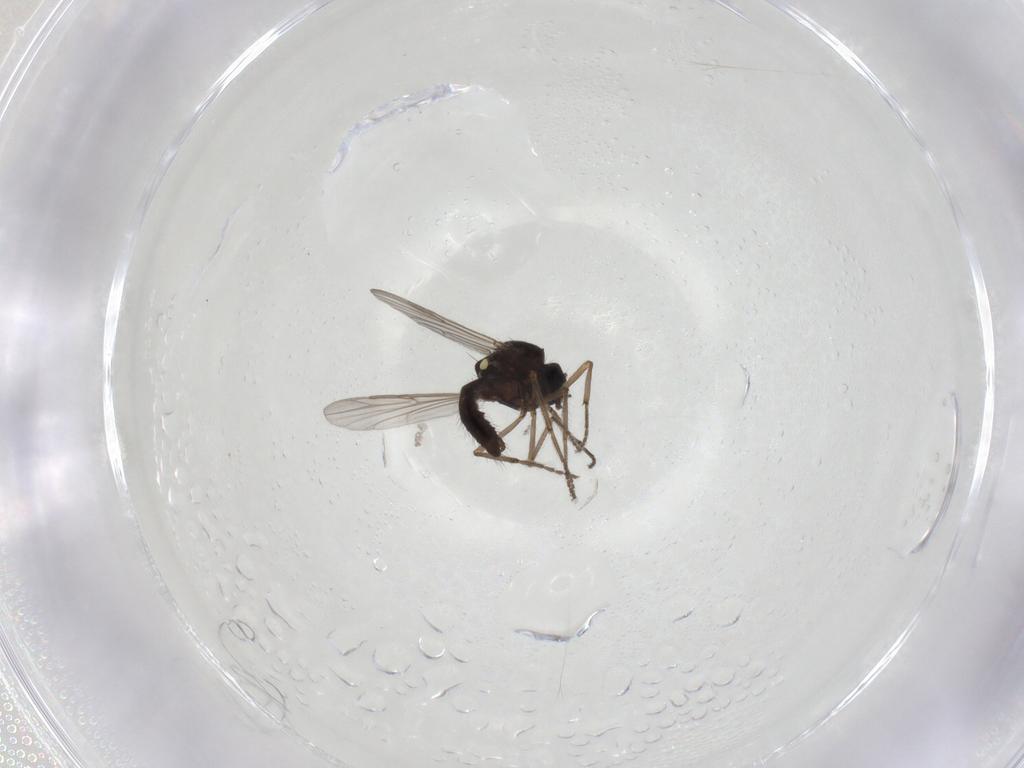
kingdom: Animalia
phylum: Arthropoda
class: Insecta
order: Diptera
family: Ceratopogonidae
